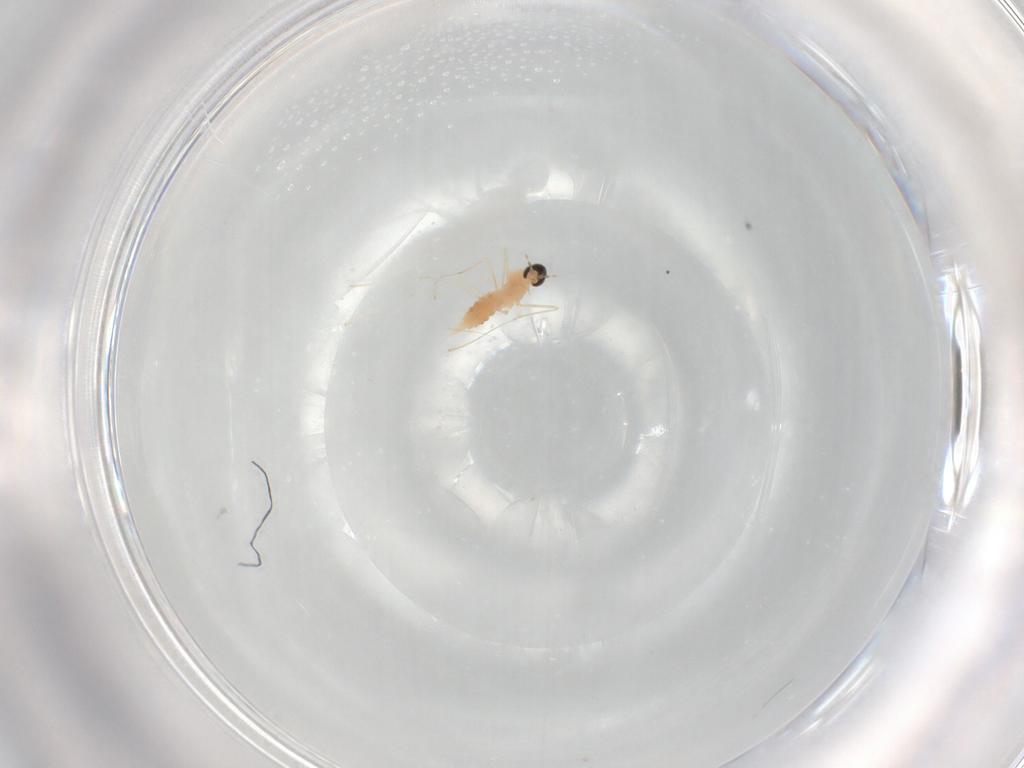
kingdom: Animalia
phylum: Arthropoda
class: Insecta
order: Diptera
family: Cecidomyiidae
